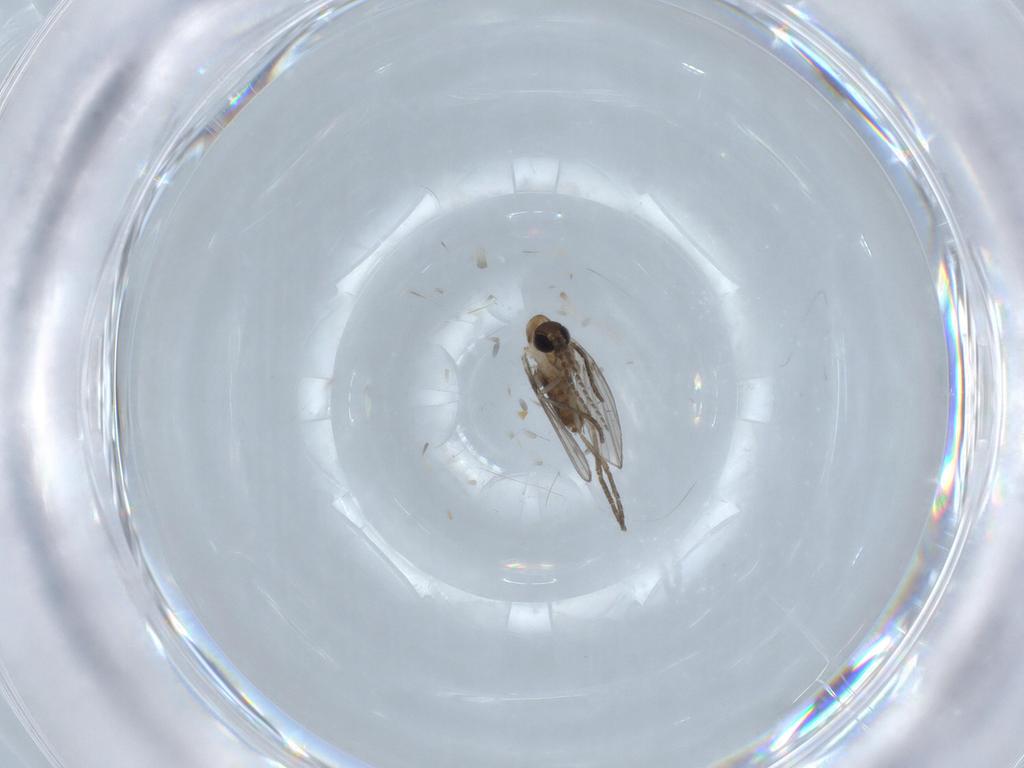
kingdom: Animalia
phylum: Arthropoda
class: Insecta
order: Diptera
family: Psychodidae
